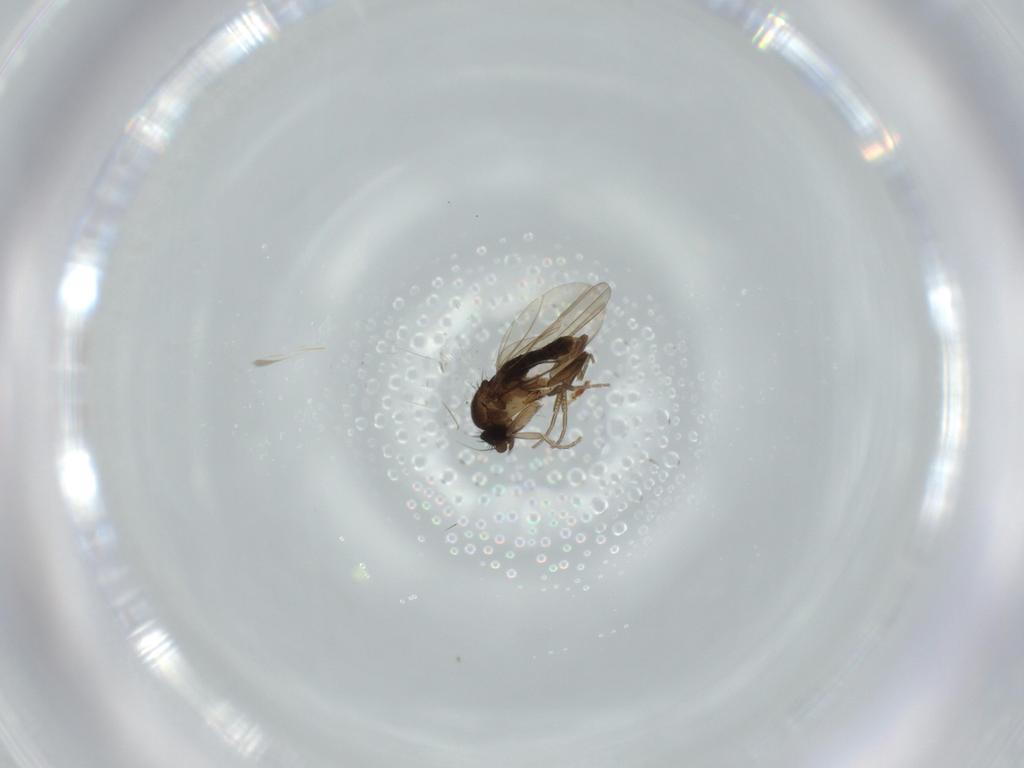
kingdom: Animalia
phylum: Arthropoda
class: Insecta
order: Diptera
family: Phoridae
